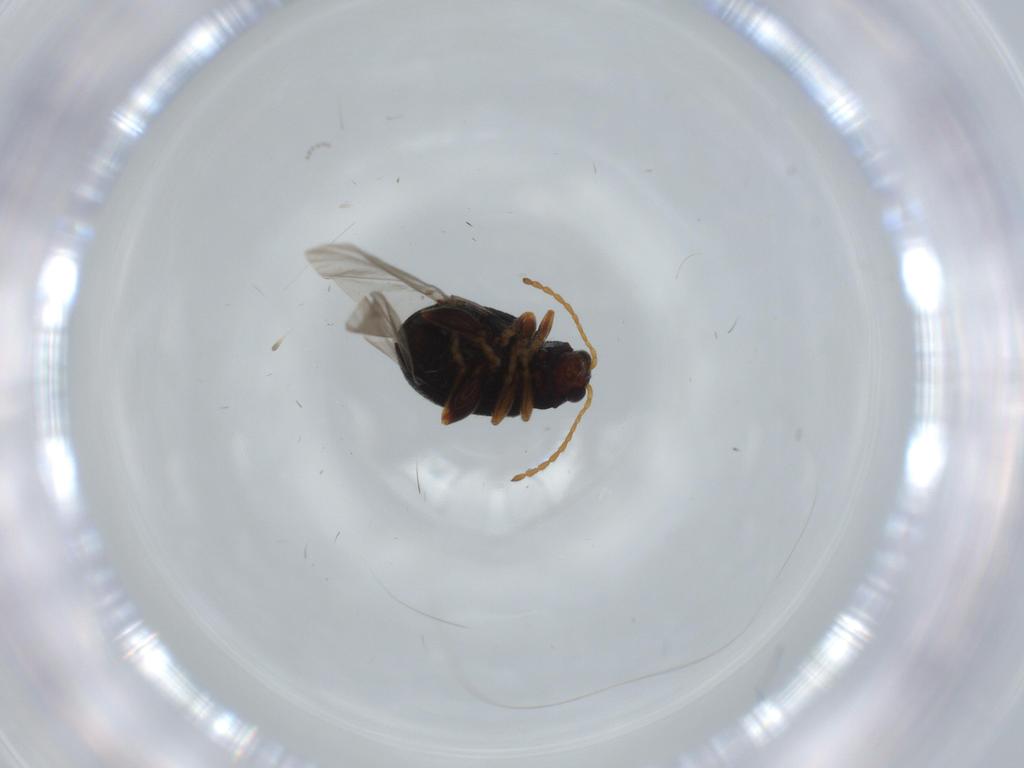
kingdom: Animalia
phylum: Arthropoda
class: Insecta
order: Coleoptera
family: Chrysomelidae
